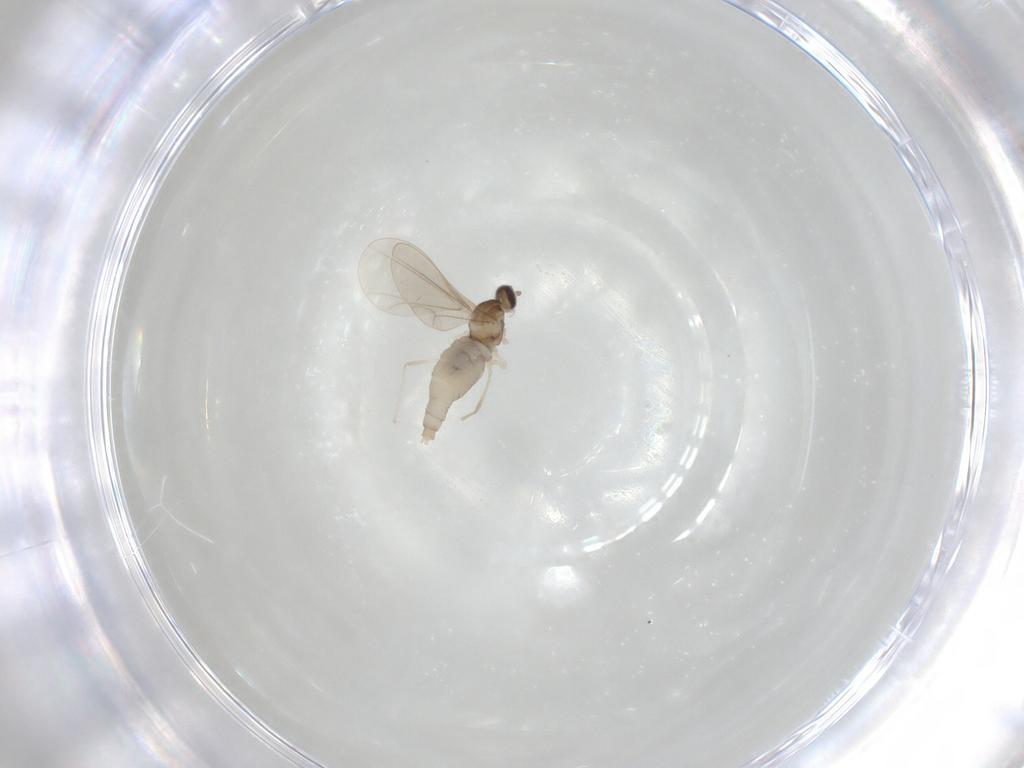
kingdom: Animalia
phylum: Arthropoda
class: Insecta
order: Diptera
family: Cecidomyiidae
